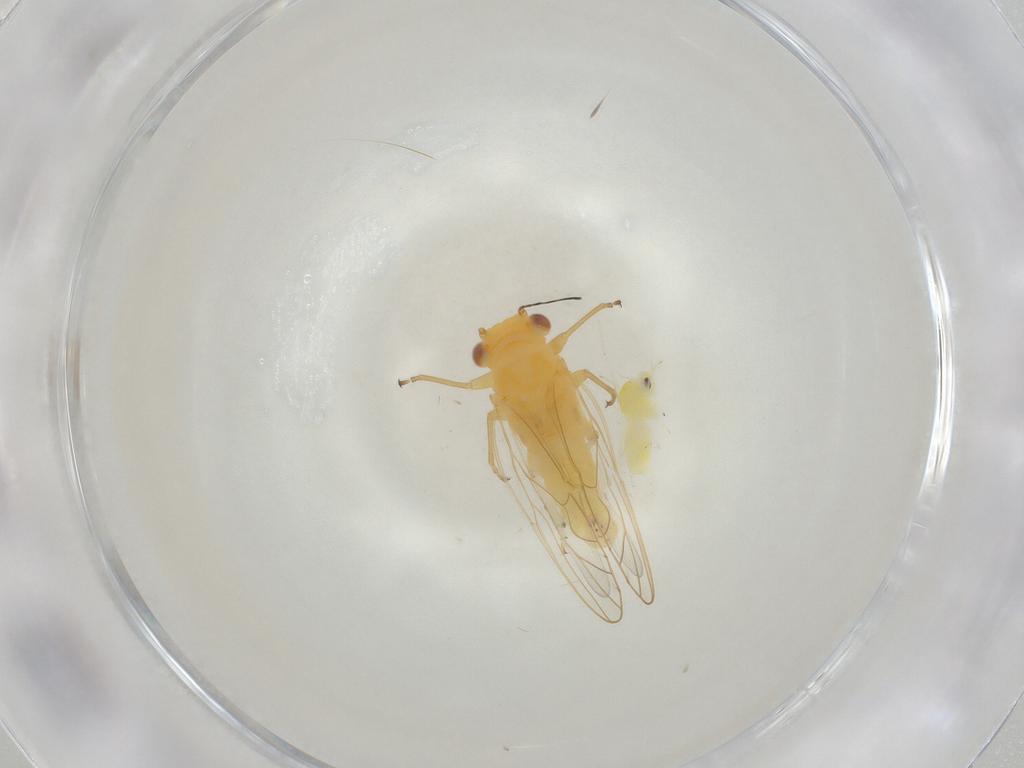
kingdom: Animalia
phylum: Arthropoda
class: Insecta
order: Hemiptera
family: Psyllidae
